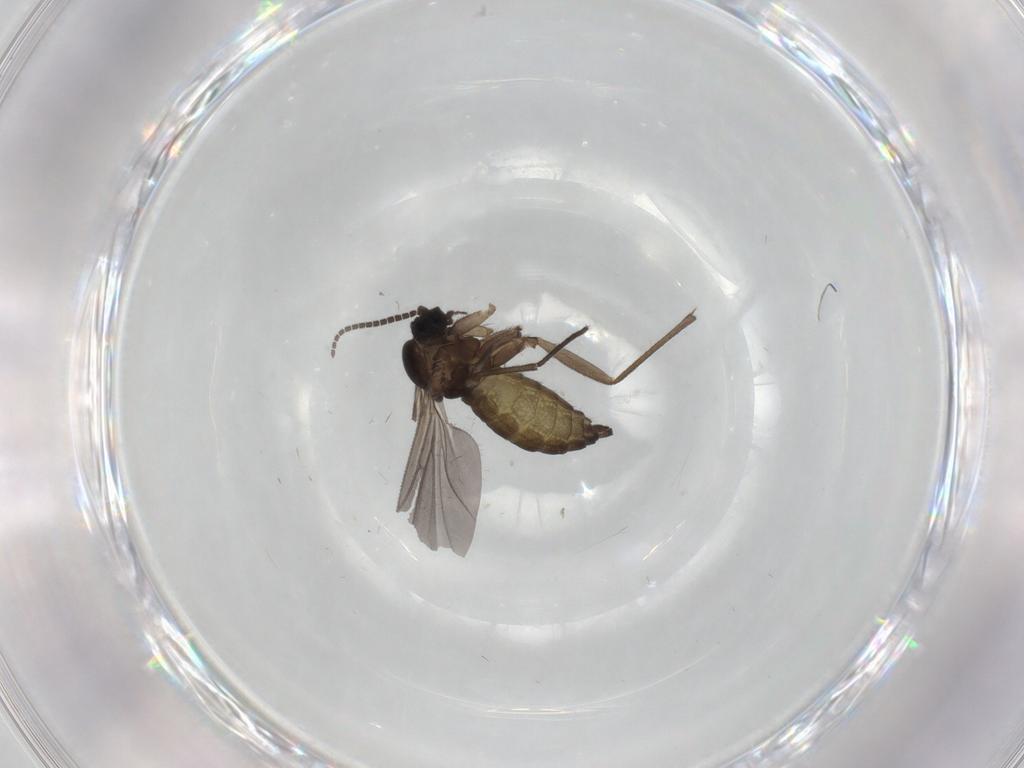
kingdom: Animalia
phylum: Arthropoda
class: Insecta
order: Diptera
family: Sciaridae
